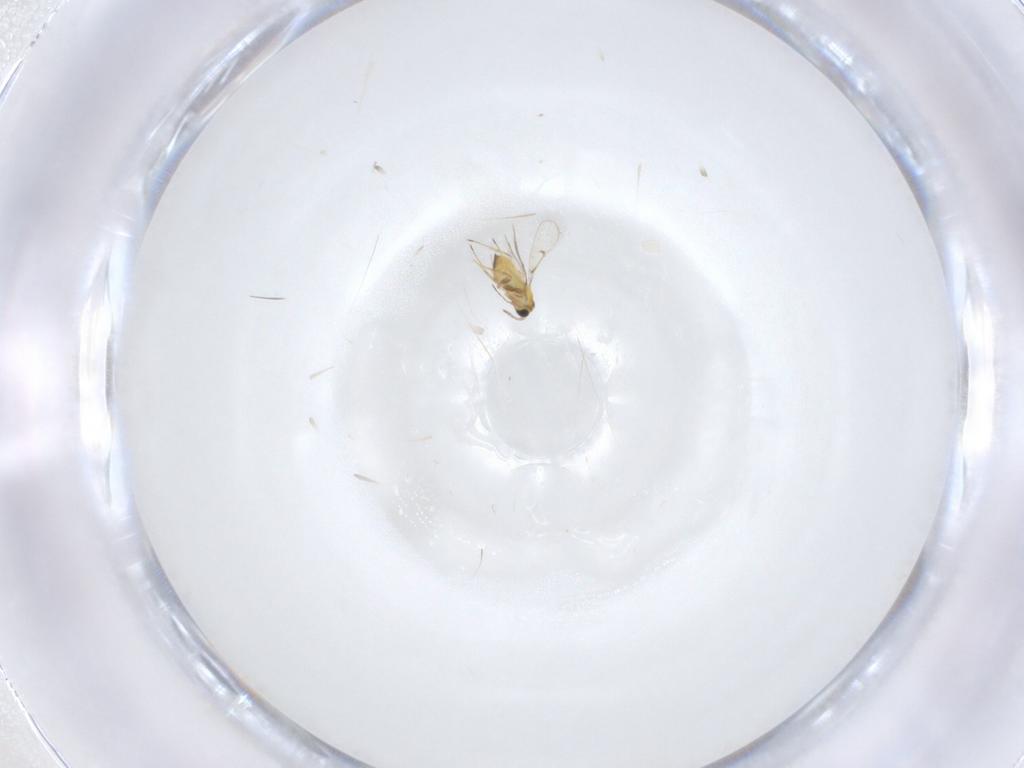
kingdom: Animalia
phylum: Arthropoda
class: Insecta
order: Hymenoptera
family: Trichogrammatidae
